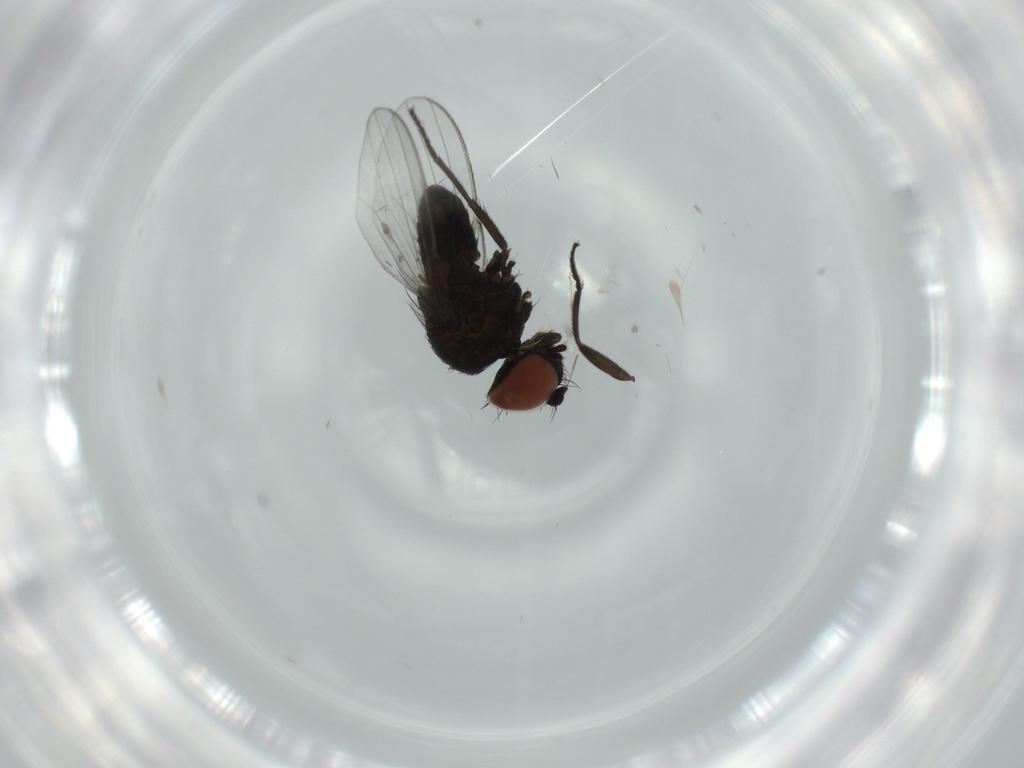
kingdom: Animalia
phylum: Arthropoda
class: Insecta
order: Diptera
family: Milichiidae
